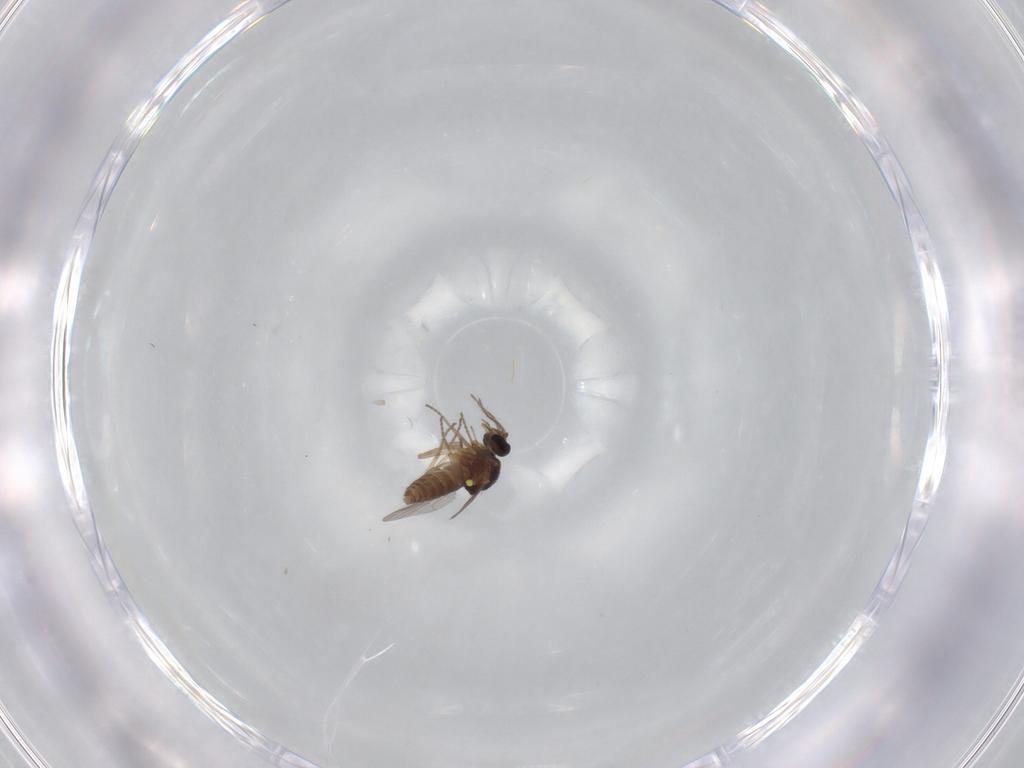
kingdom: Animalia
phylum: Arthropoda
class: Insecta
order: Diptera
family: Ceratopogonidae
